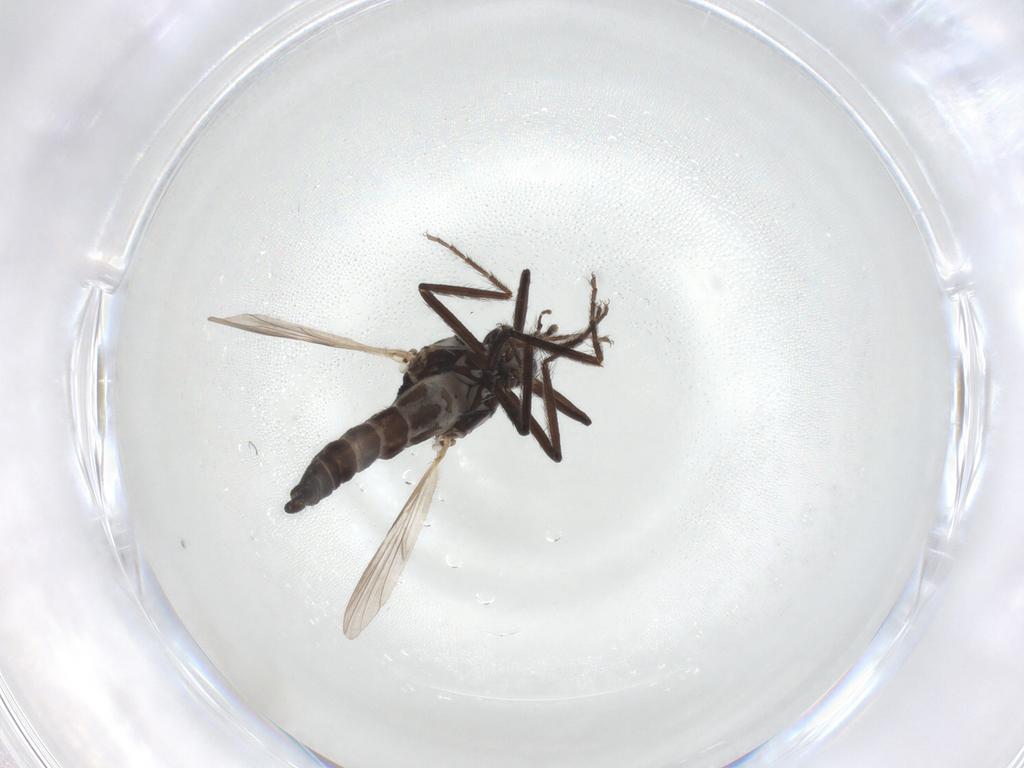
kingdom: Animalia
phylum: Arthropoda
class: Insecta
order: Diptera
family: Ceratopogonidae
